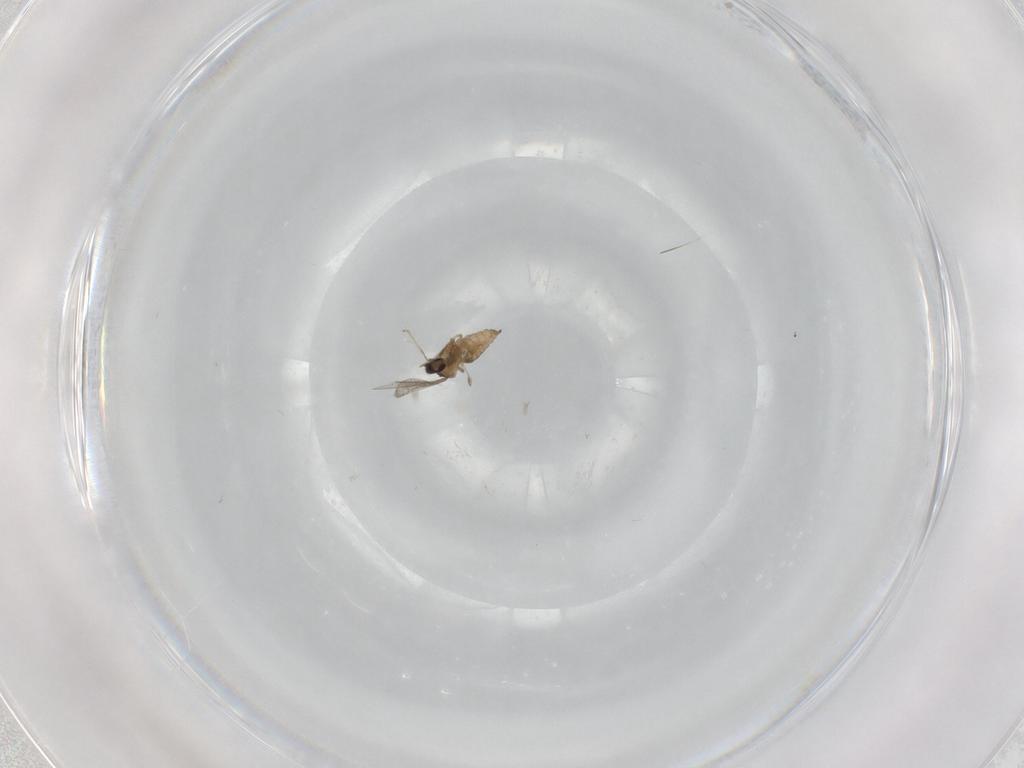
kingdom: Animalia
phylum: Arthropoda
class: Insecta
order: Diptera
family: Cecidomyiidae
